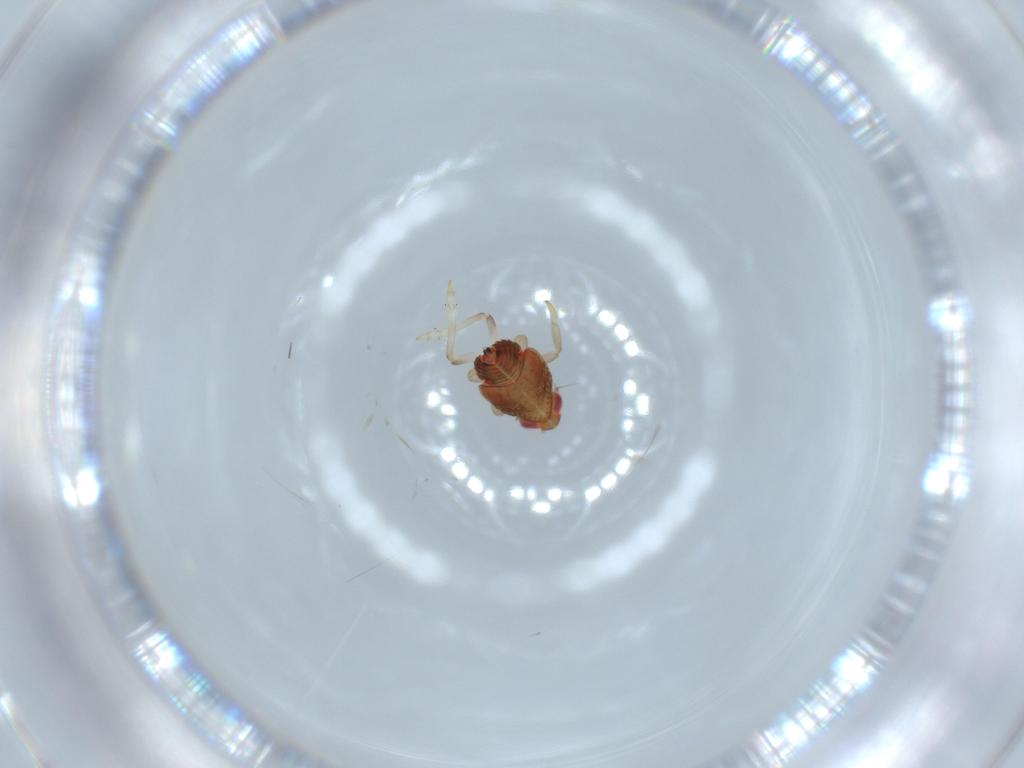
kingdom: Animalia
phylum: Arthropoda
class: Insecta
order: Hemiptera
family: Issidae
